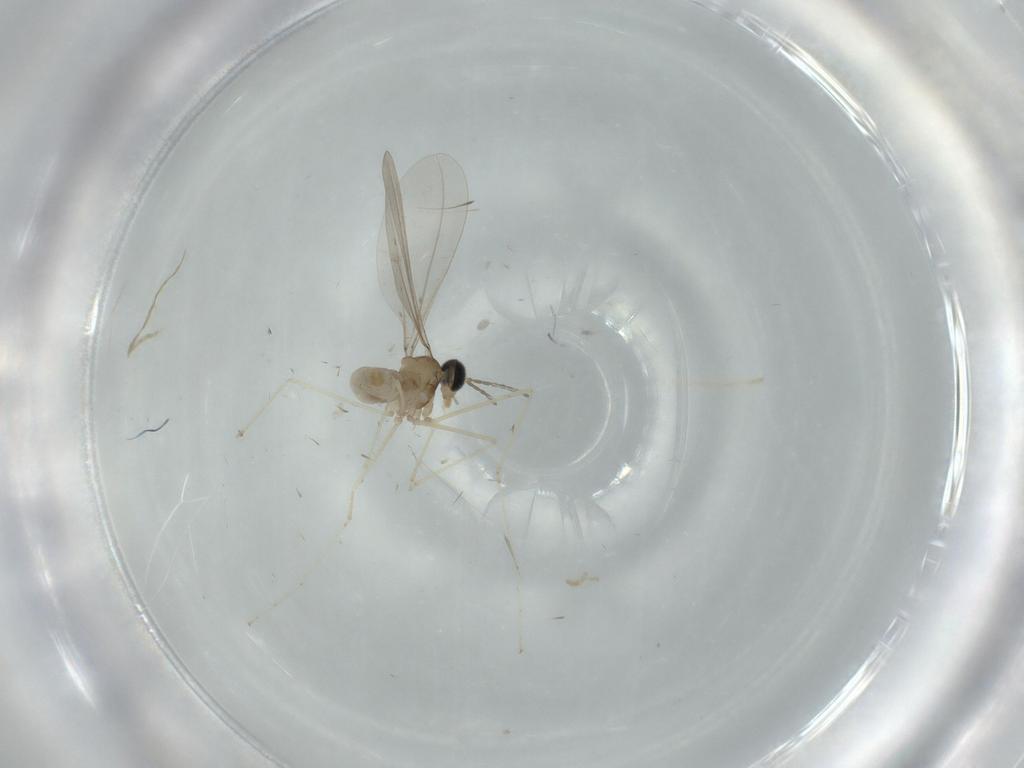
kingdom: Animalia
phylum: Arthropoda
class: Insecta
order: Diptera
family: Cecidomyiidae
